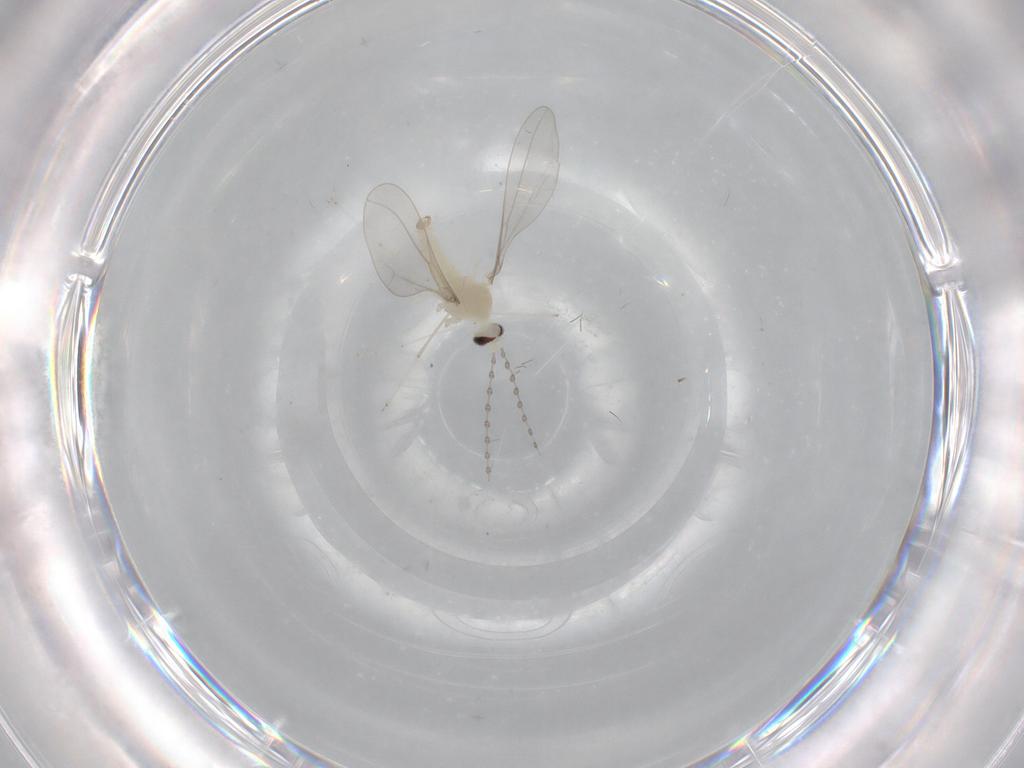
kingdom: Animalia
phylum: Arthropoda
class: Insecta
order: Diptera
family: Cecidomyiidae
